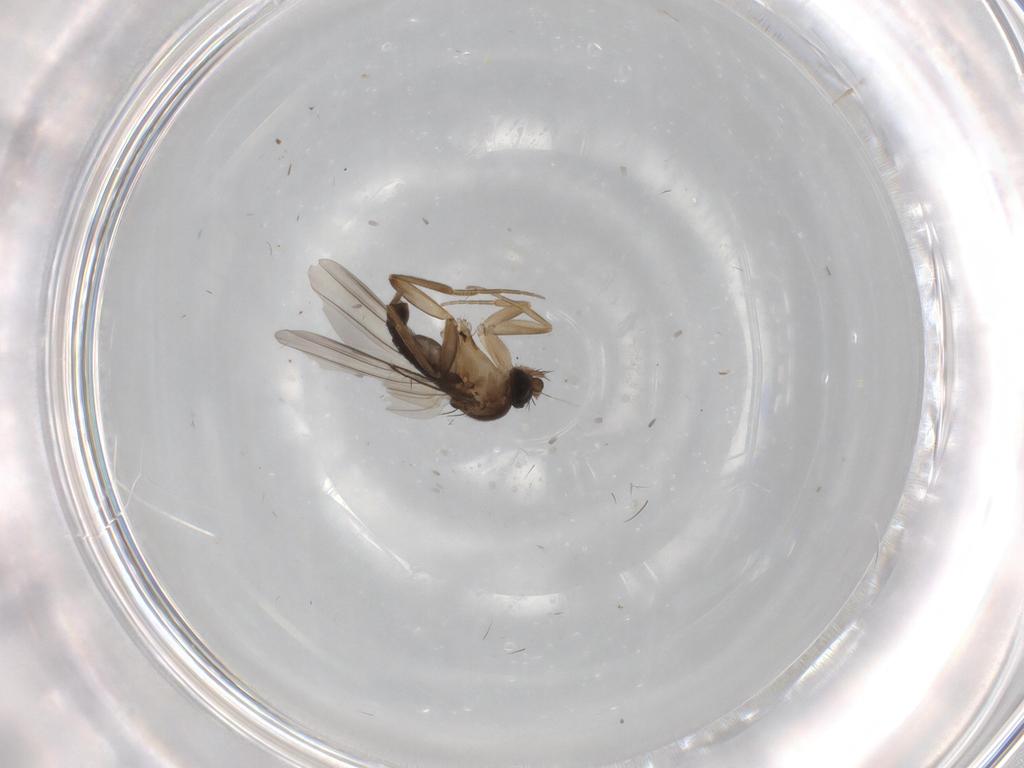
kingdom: Animalia
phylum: Arthropoda
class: Insecta
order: Diptera
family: Phoridae
